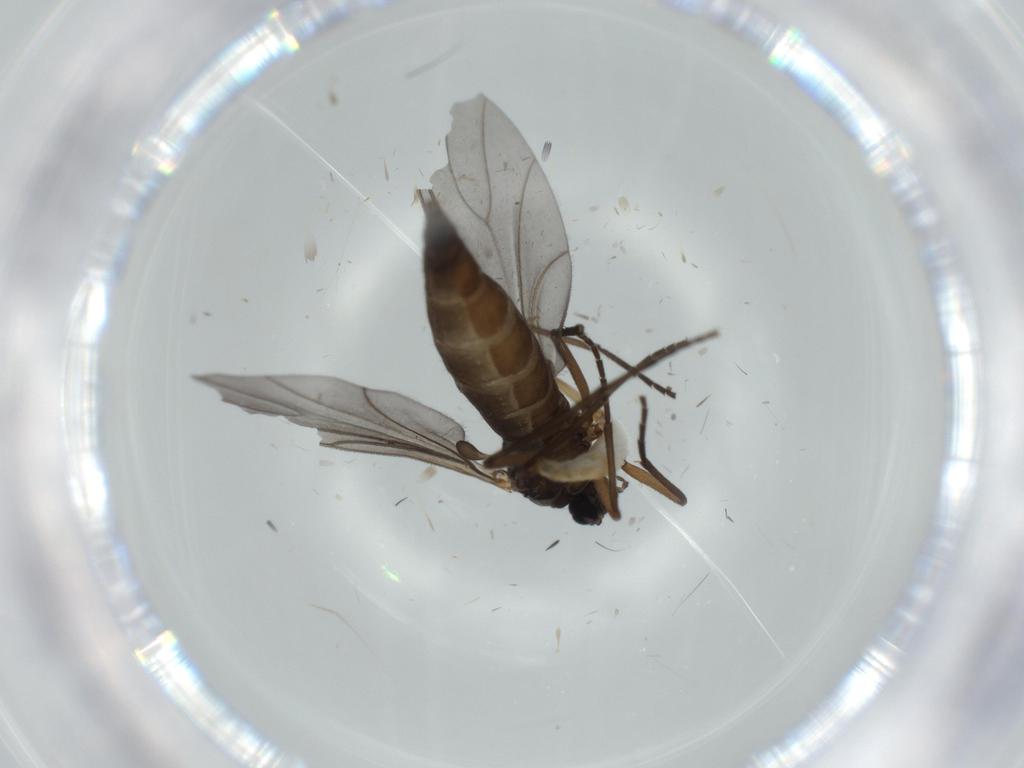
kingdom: Animalia
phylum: Arthropoda
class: Insecta
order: Diptera
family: Sciaridae
